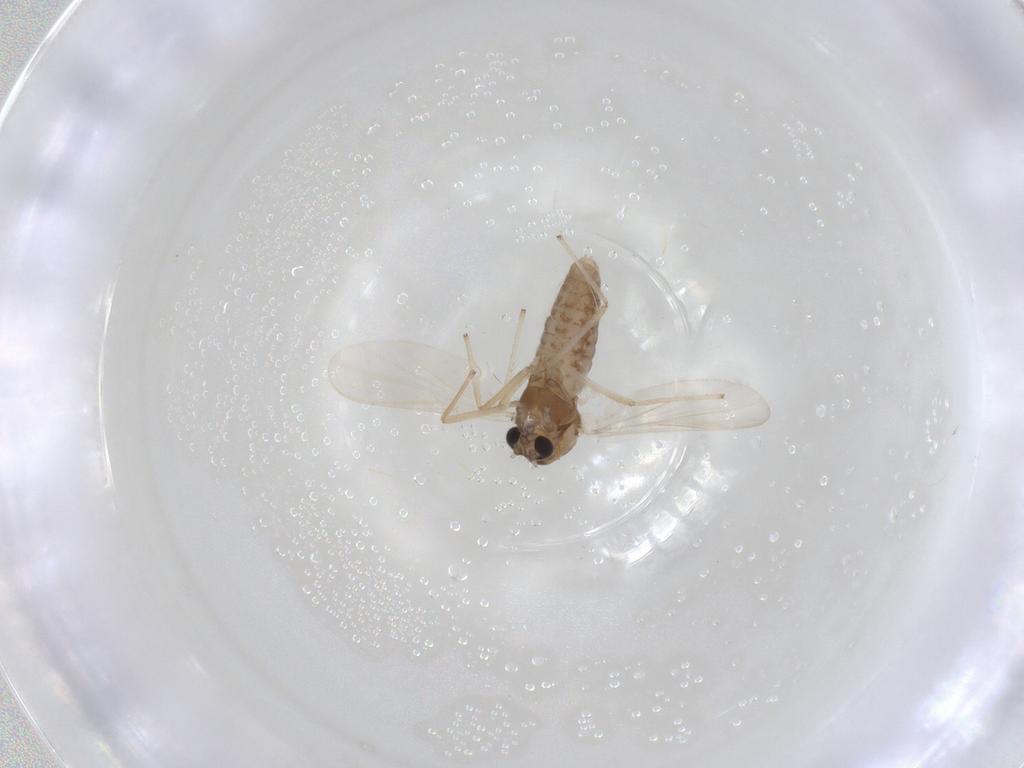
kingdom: Animalia
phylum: Arthropoda
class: Insecta
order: Diptera
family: Chironomidae
